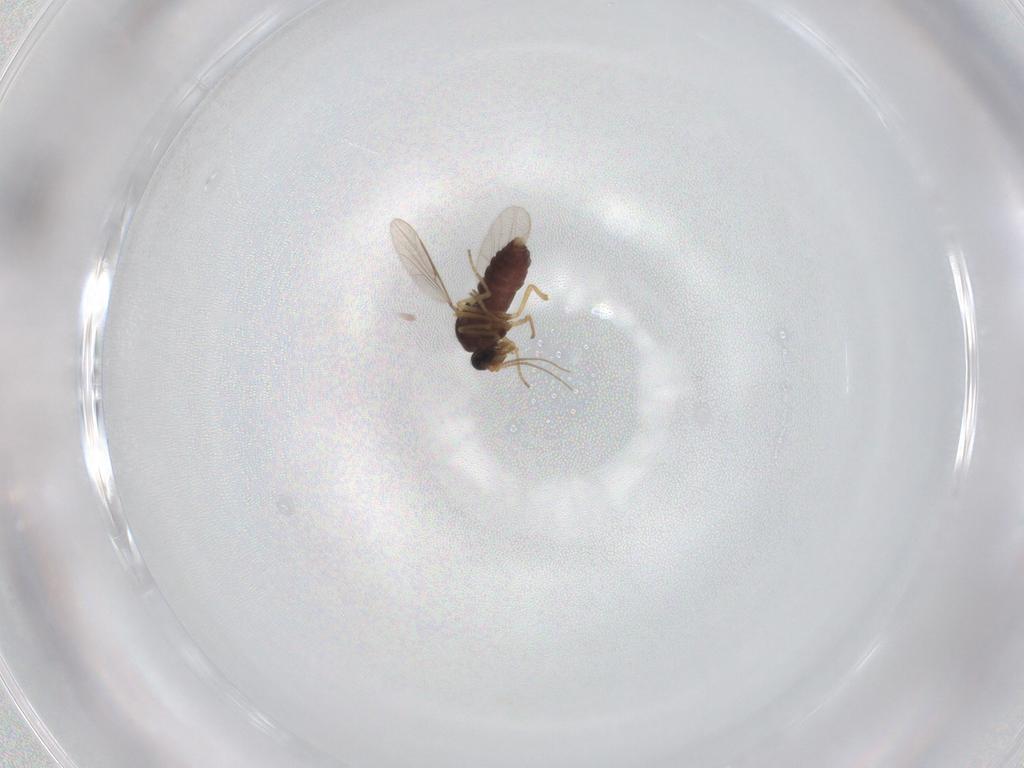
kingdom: Animalia
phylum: Arthropoda
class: Insecta
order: Diptera
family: Ceratopogonidae
